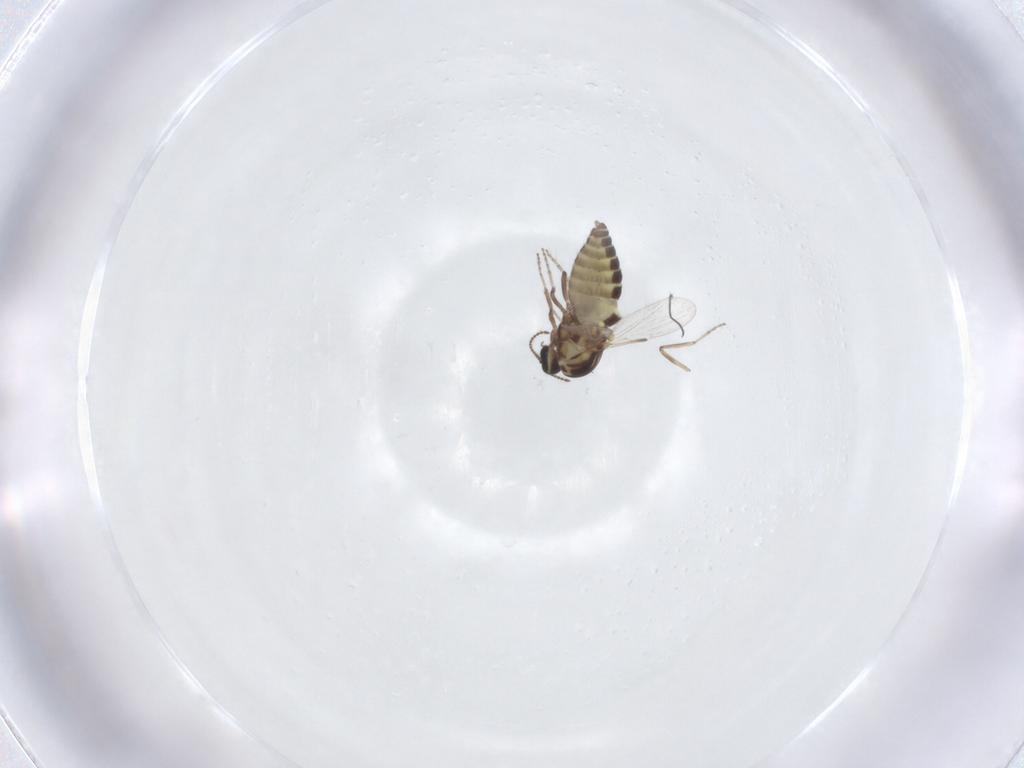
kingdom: Animalia
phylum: Arthropoda
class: Insecta
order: Diptera
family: Ceratopogonidae
